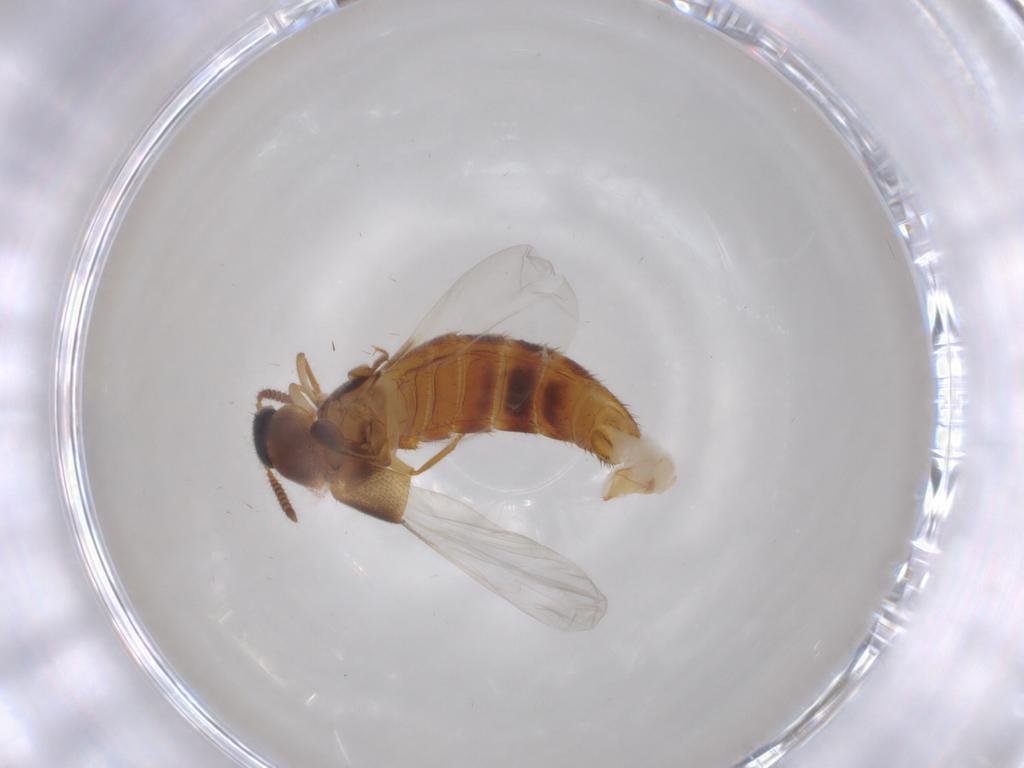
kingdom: Animalia
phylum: Arthropoda
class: Insecta
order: Coleoptera
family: Staphylinidae
